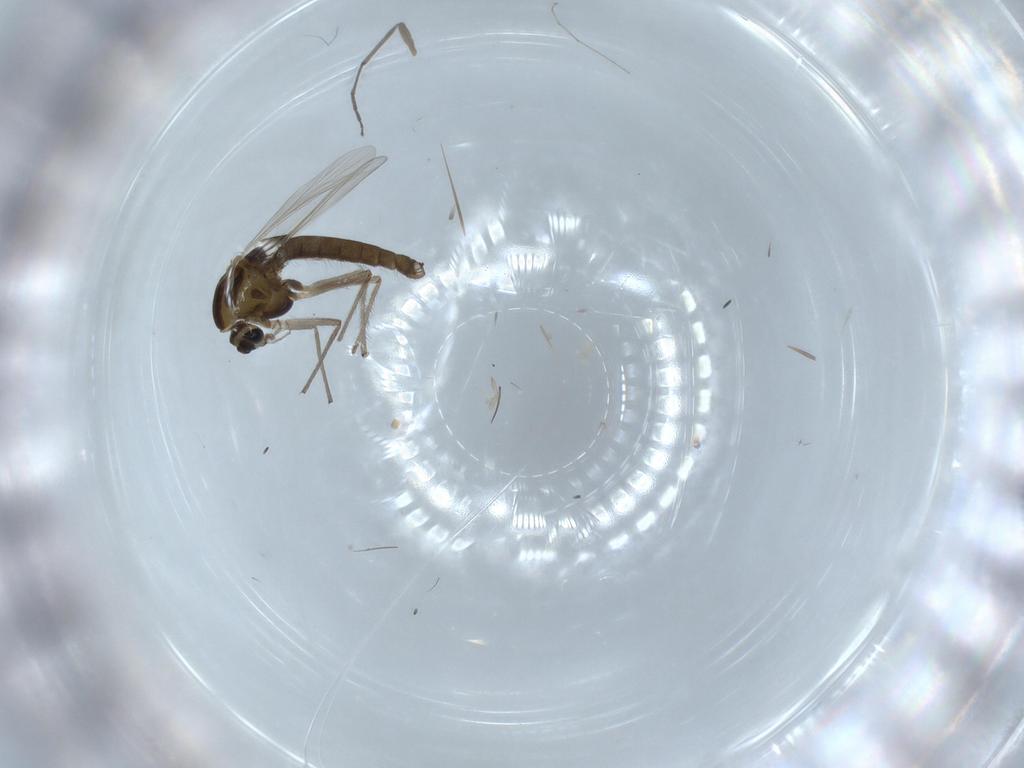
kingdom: Animalia
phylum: Arthropoda
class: Insecta
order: Diptera
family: Chironomidae
